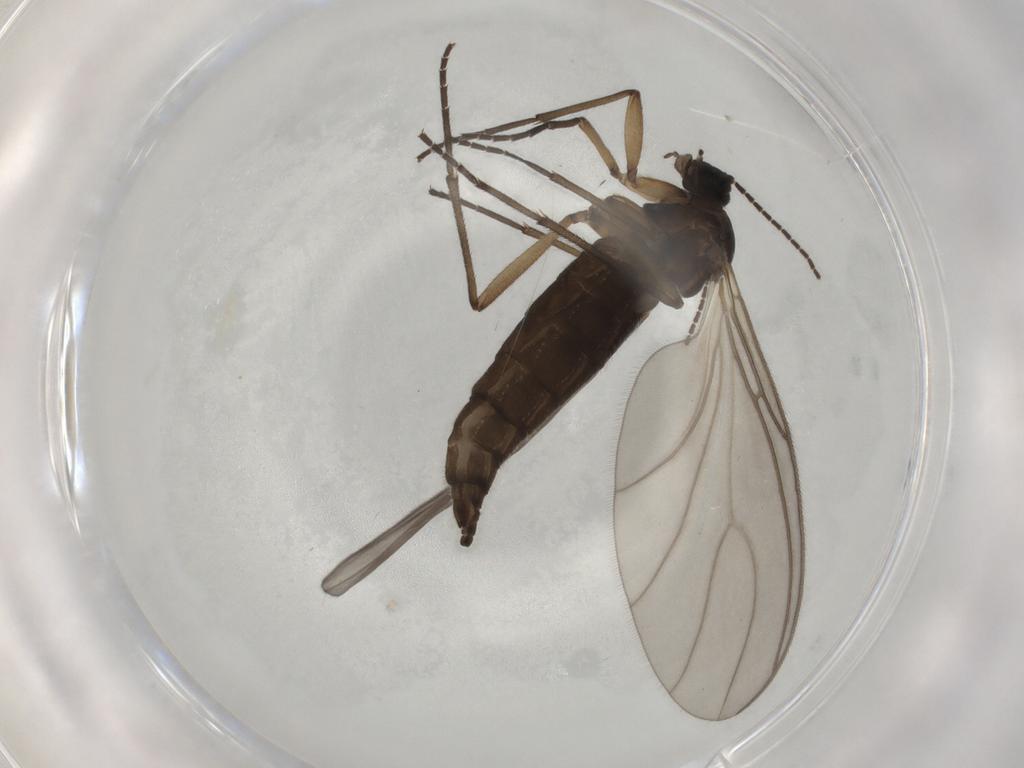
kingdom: Animalia
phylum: Arthropoda
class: Insecta
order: Diptera
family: Sciaridae
